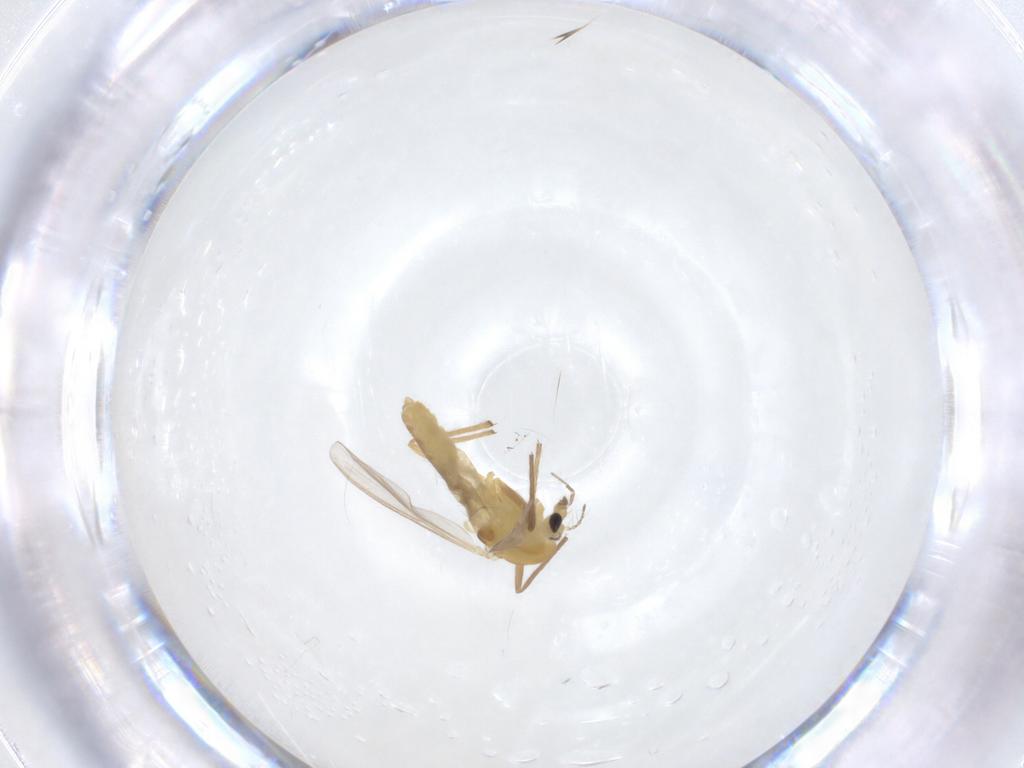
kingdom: Animalia
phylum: Arthropoda
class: Insecta
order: Diptera
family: Chironomidae
